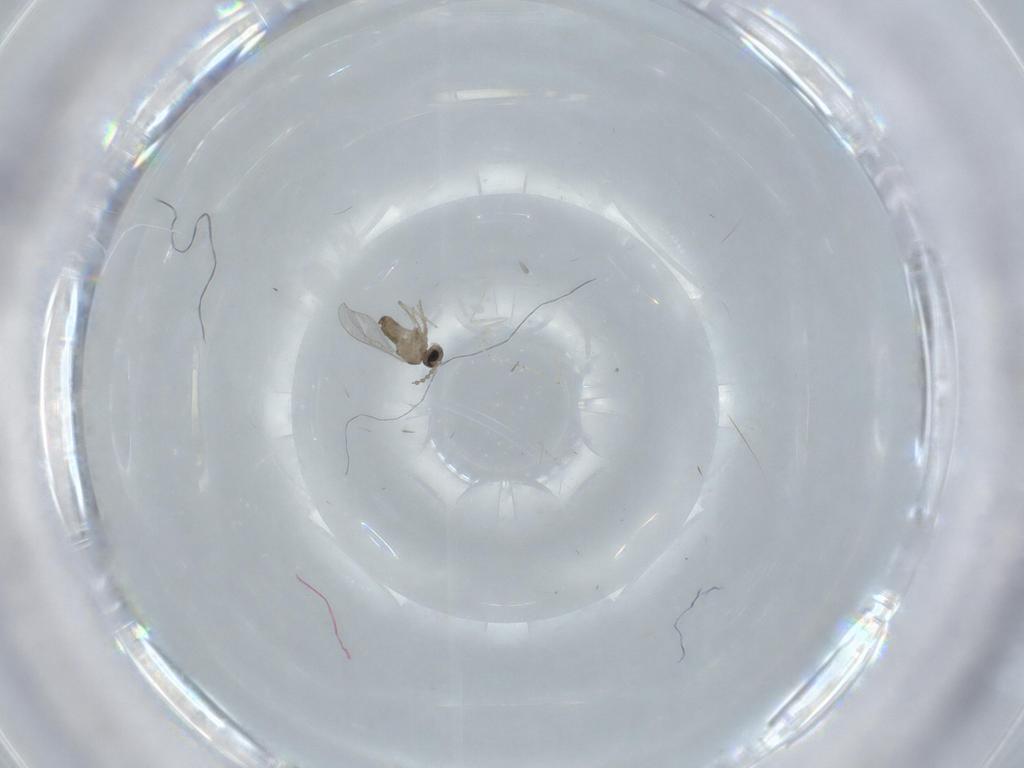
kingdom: Animalia
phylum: Arthropoda
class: Insecta
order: Diptera
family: Cecidomyiidae
